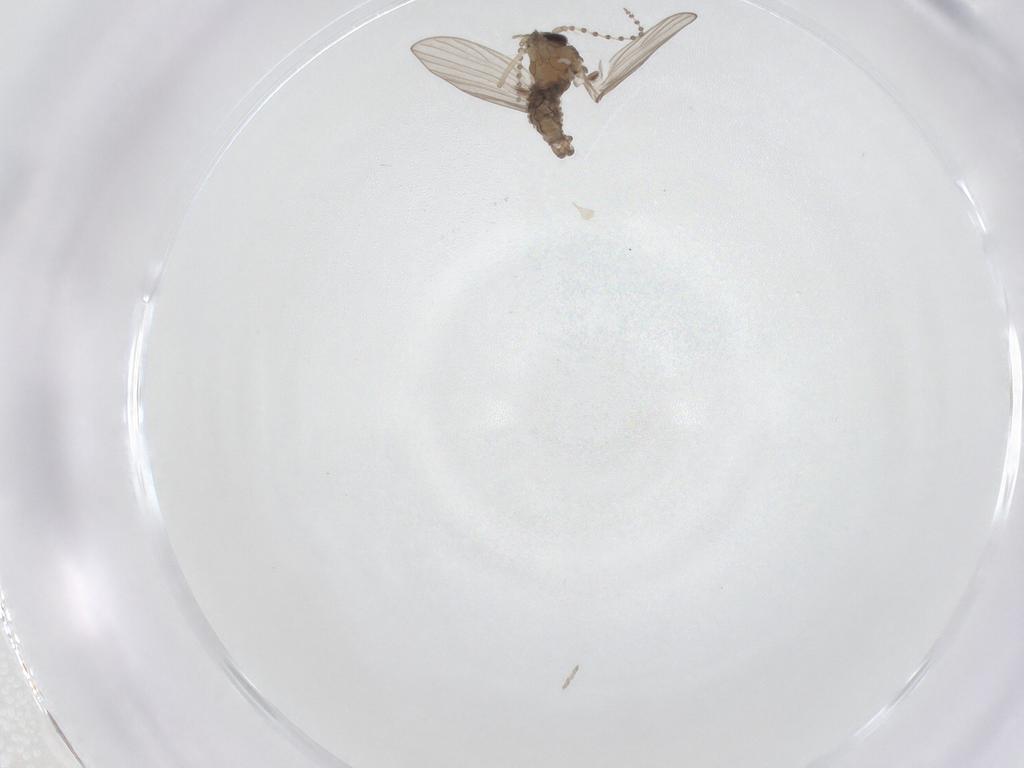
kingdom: Animalia
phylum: Arthropoda
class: Insecta
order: Diptera
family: Psychodidae
